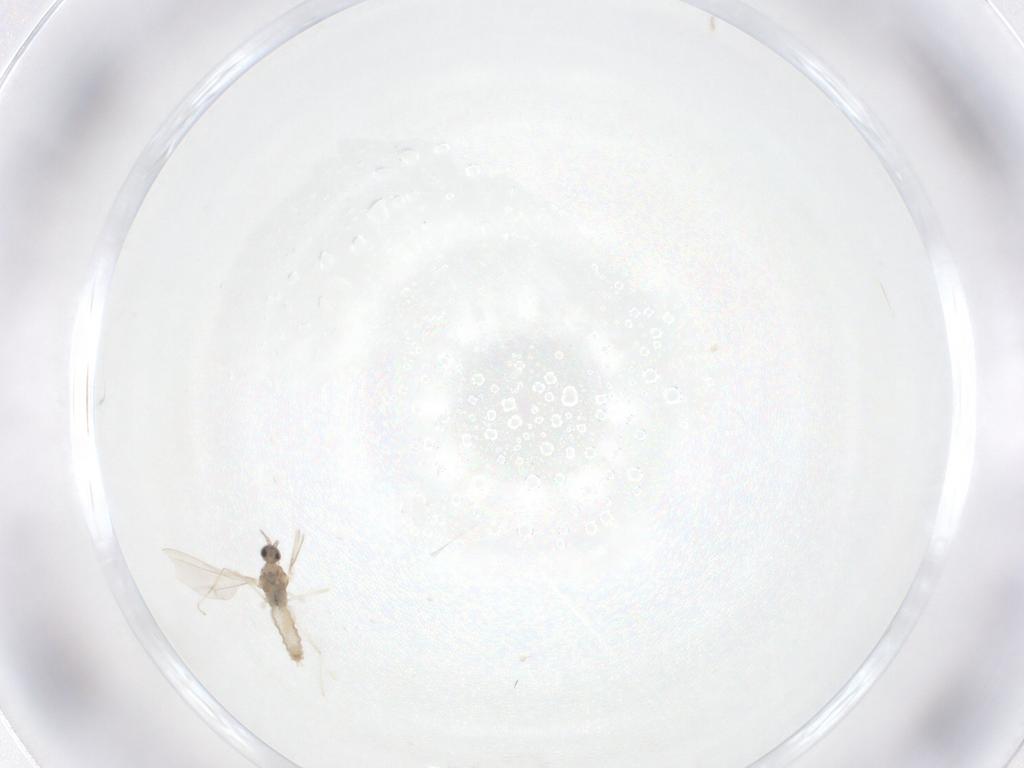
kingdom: Animalia
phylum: Arthropoda
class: Insecta
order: Diptera
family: Cecidomyiidae
